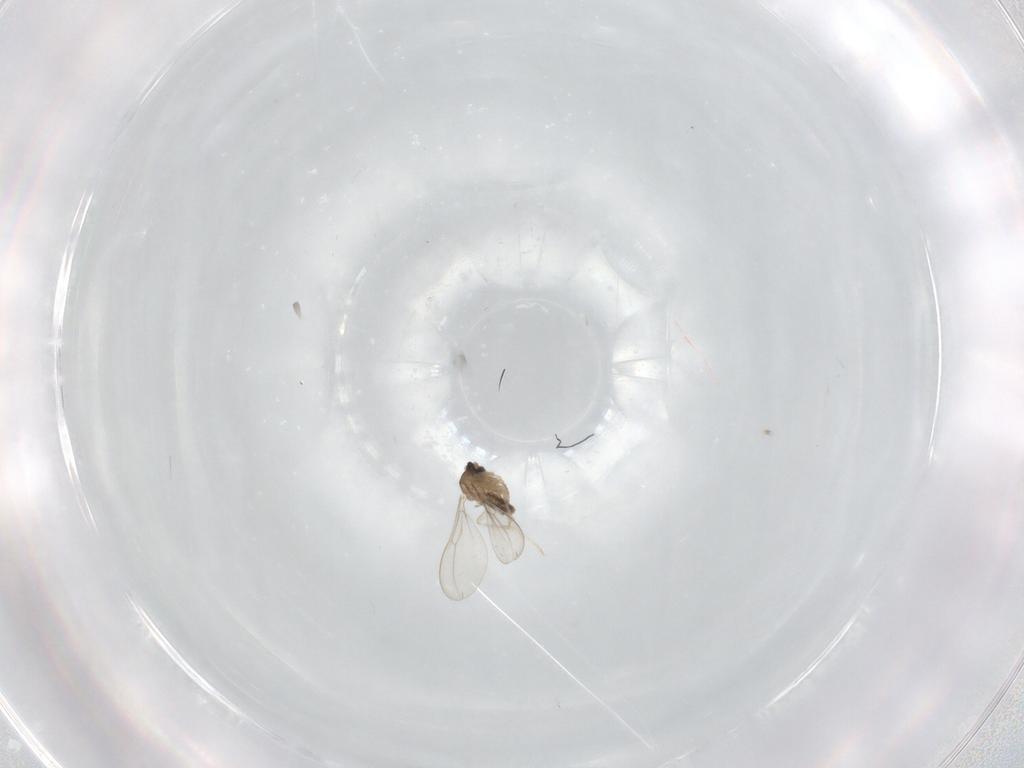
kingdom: Animalia
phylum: Arthropoda
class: Insecta
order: Diptera
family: Cecidomyiidae
